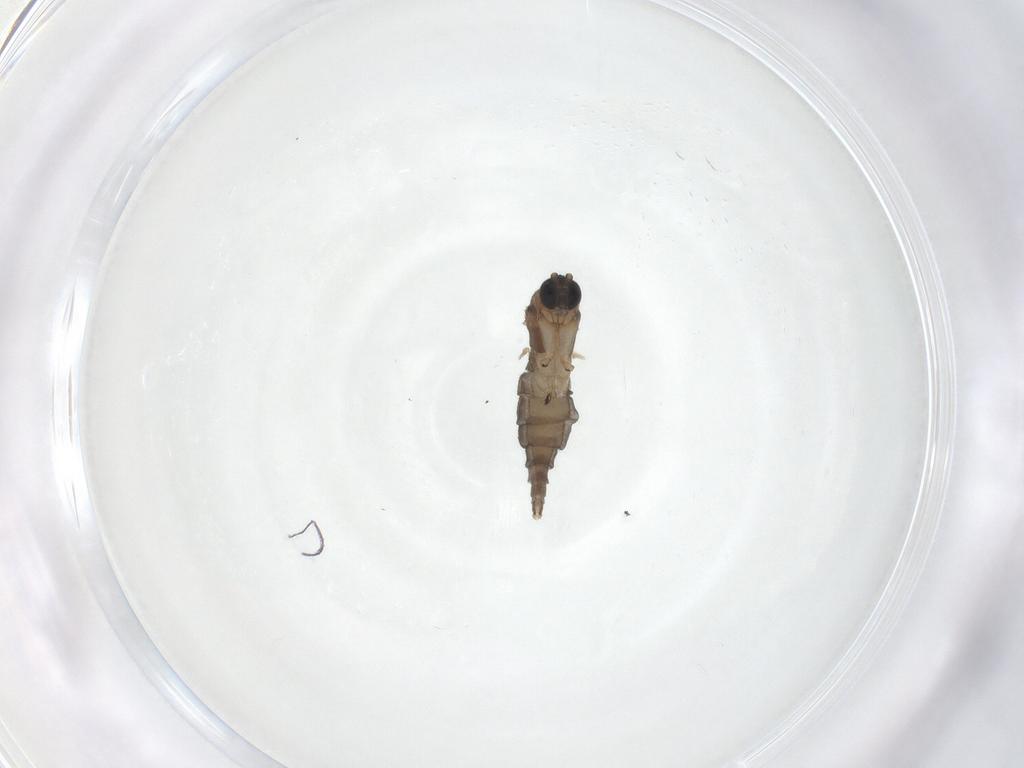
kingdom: Animalia
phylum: Arthropoda
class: Insecta
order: Diptera
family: Sciaridae
